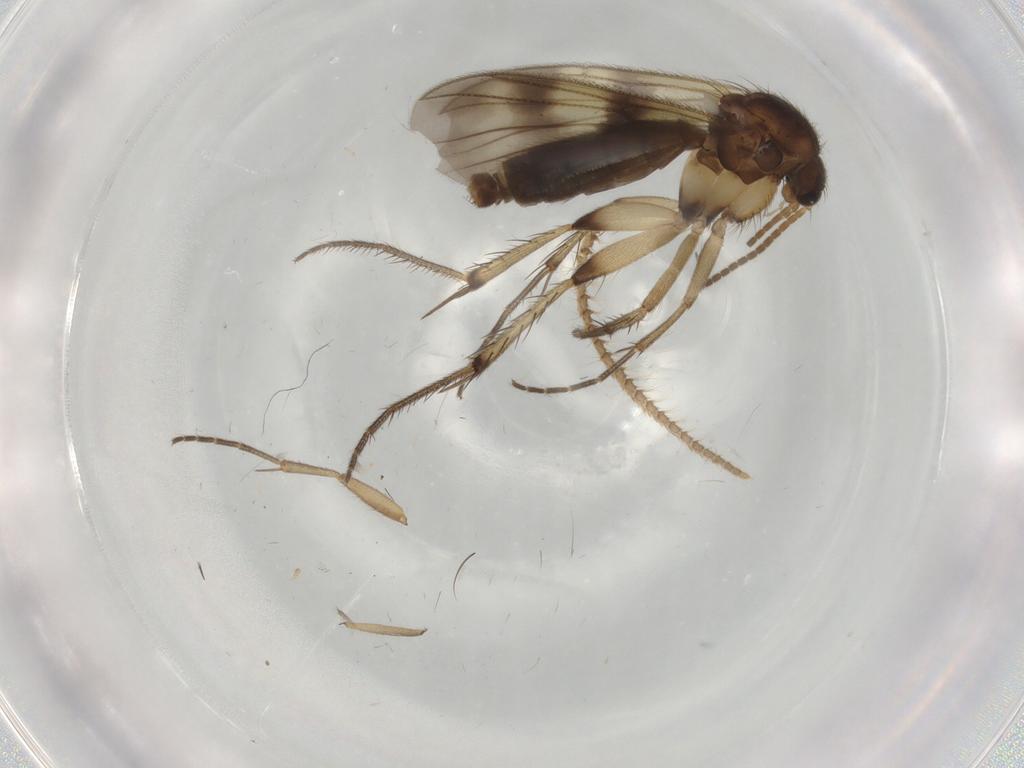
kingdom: Animalia
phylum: Arthropoda
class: Insecta
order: Diptera
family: Mycetophilidae
